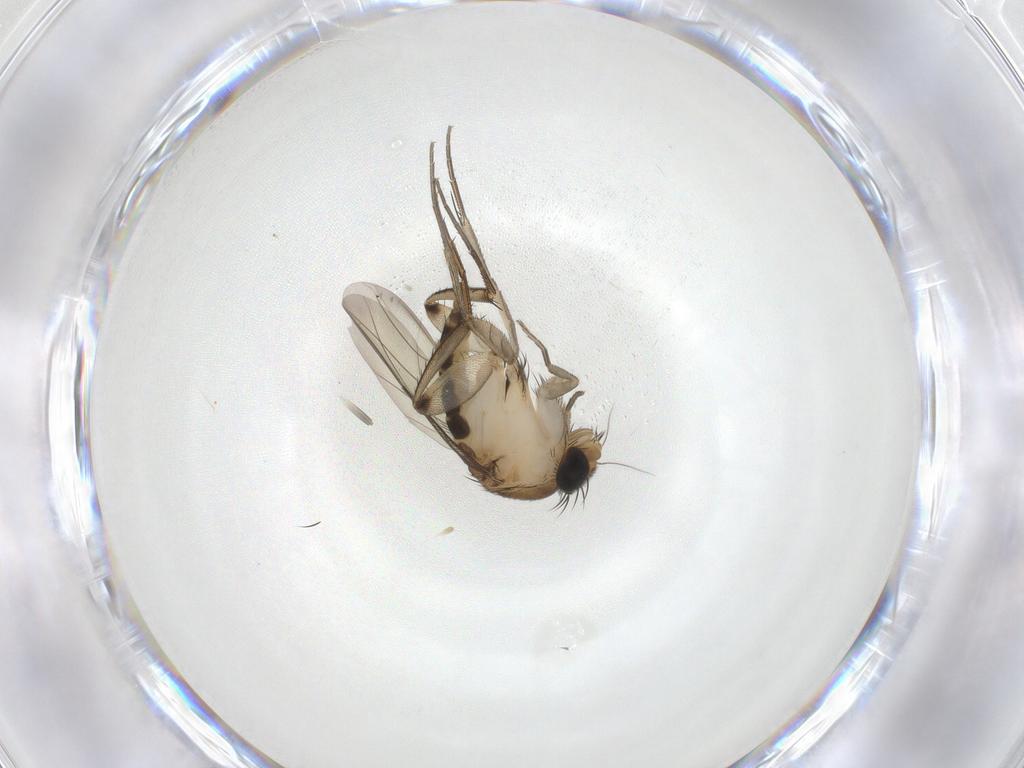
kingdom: Animalia
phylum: Arthropoda
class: Insecta
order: Diptera
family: Phoridae
